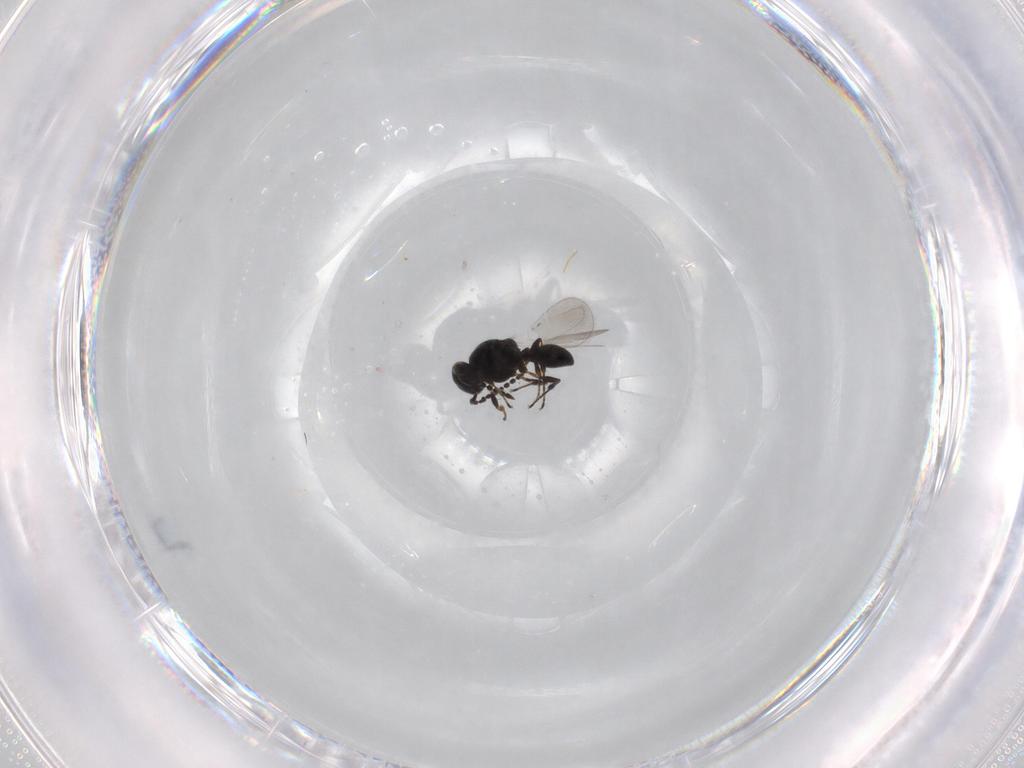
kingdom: Animalia
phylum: Arthropoda
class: Insecta
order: Hymenoptera
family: Platygastridae
